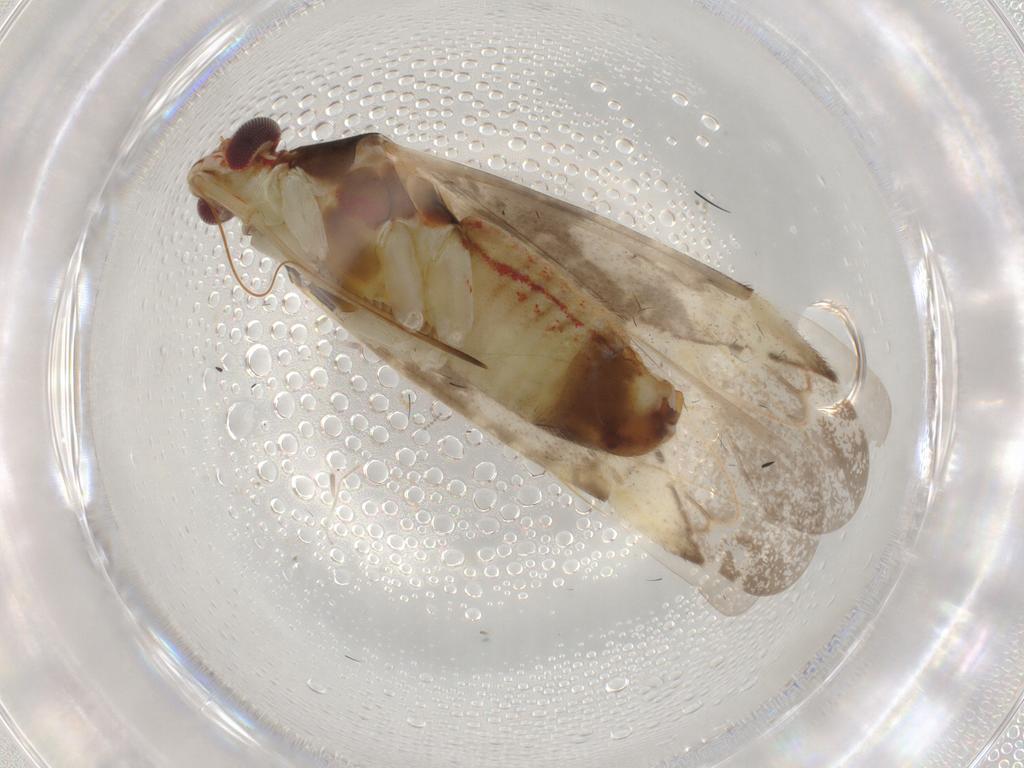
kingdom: Animalia
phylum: Arthropoda
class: Insecta
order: Hemiptera
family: Miridae
